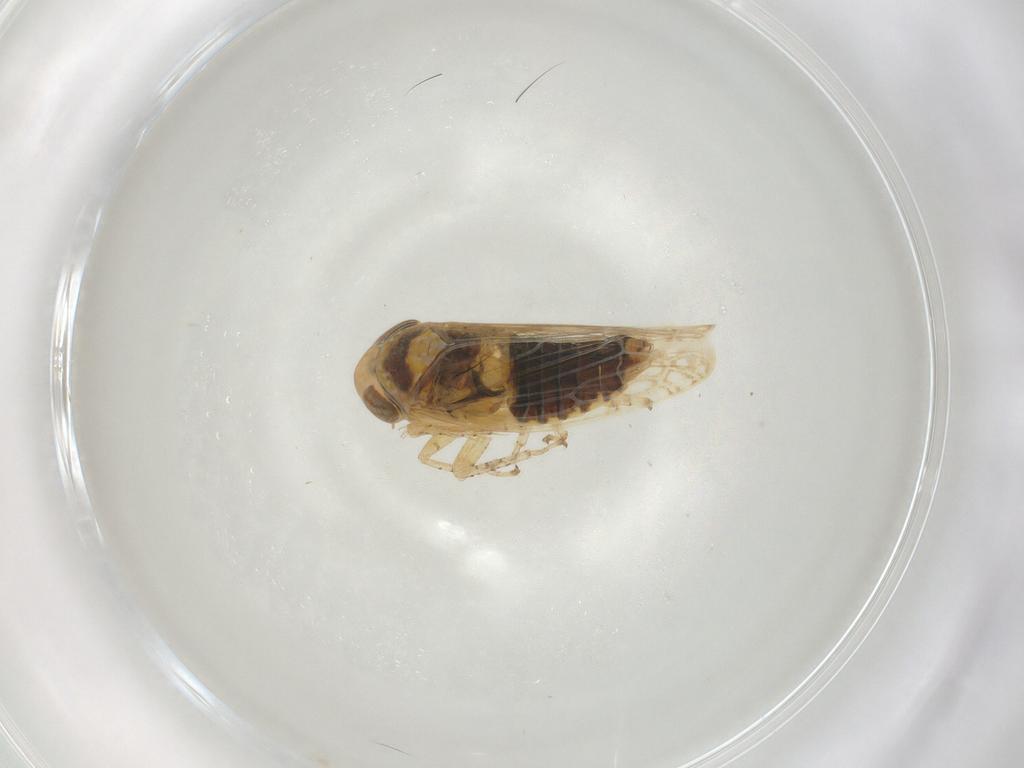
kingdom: Animalia
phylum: Arthropoda
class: Insecta
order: Hemiptera
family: Cicadellidae
